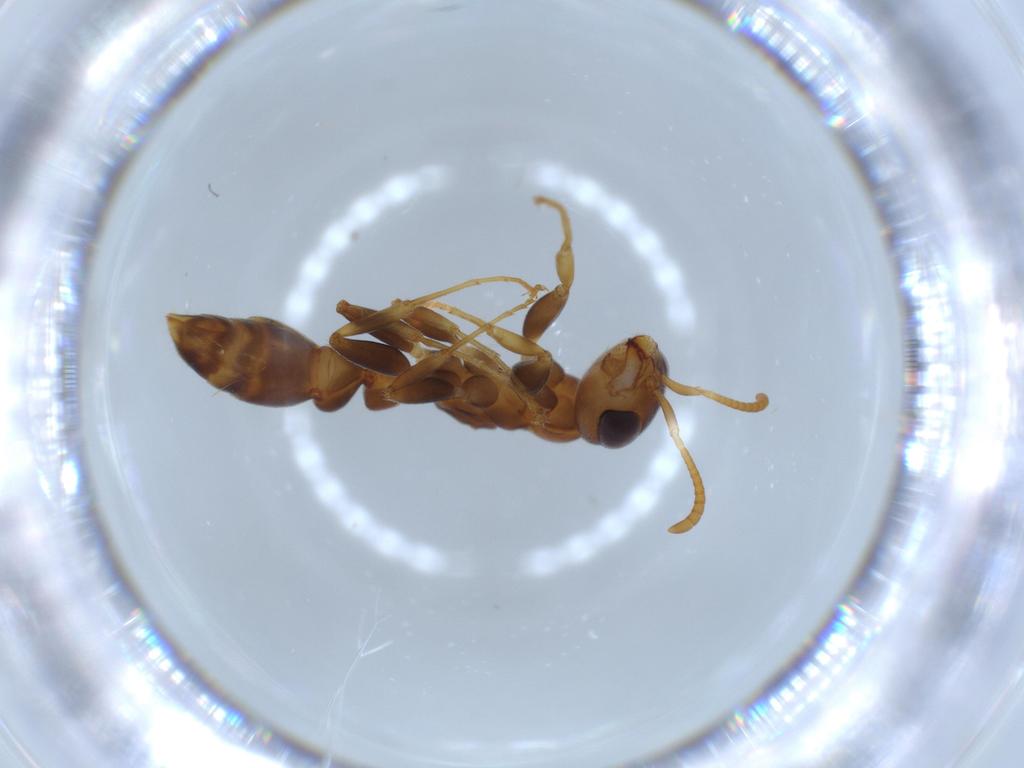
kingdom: Animalia
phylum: Arthropoda
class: Insecta
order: Hymenoptera
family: Formicidae
